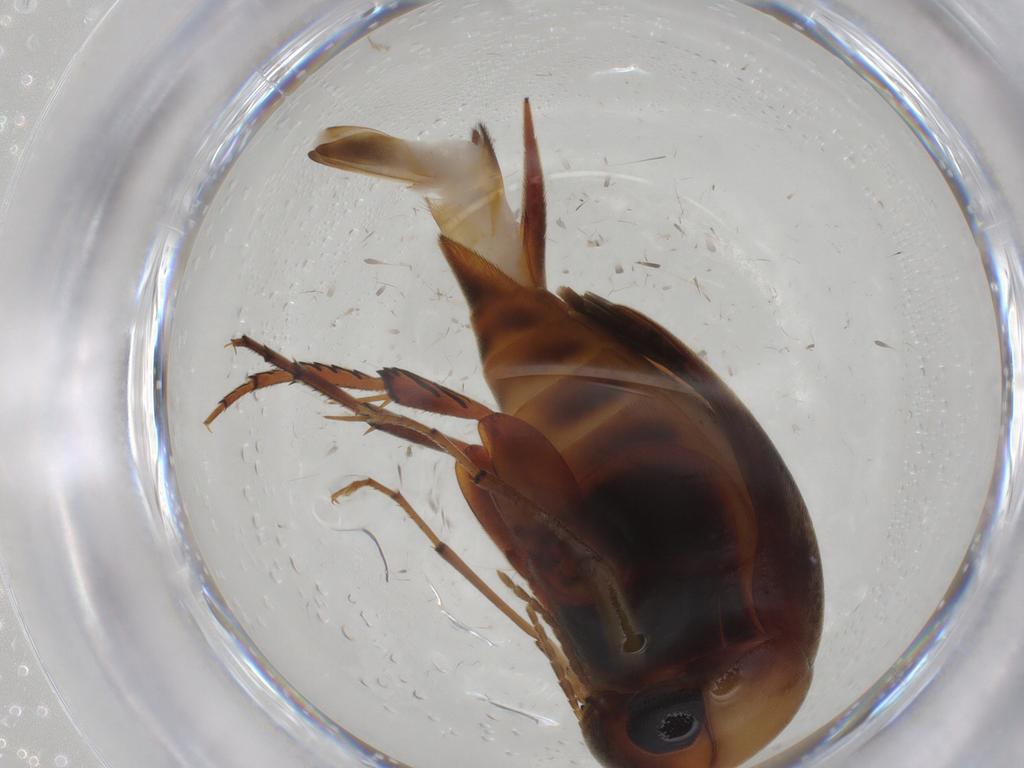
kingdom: Animalia
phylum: Arthropoda
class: Insecta
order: Coleoptera
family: Mordellidae
